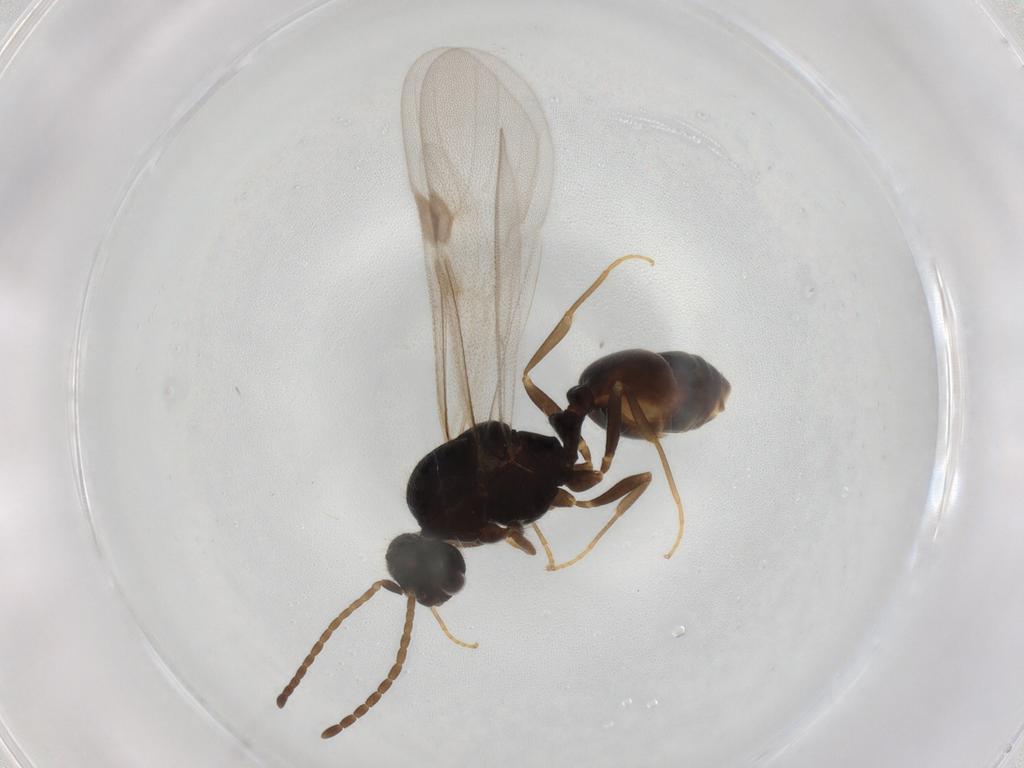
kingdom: Animalia
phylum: Arthropoda
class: Insecta
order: Hymenoptera
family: Formicidae
